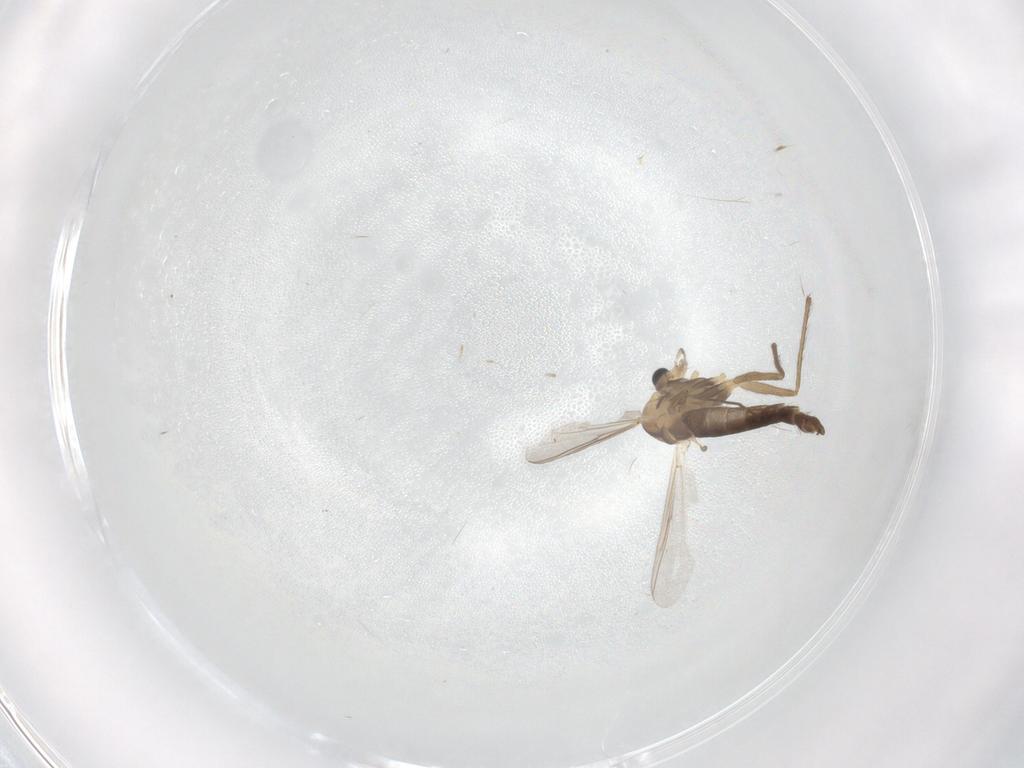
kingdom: Animalia
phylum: Arthropoda
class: Insecta
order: Diptera
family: Chironomidae
